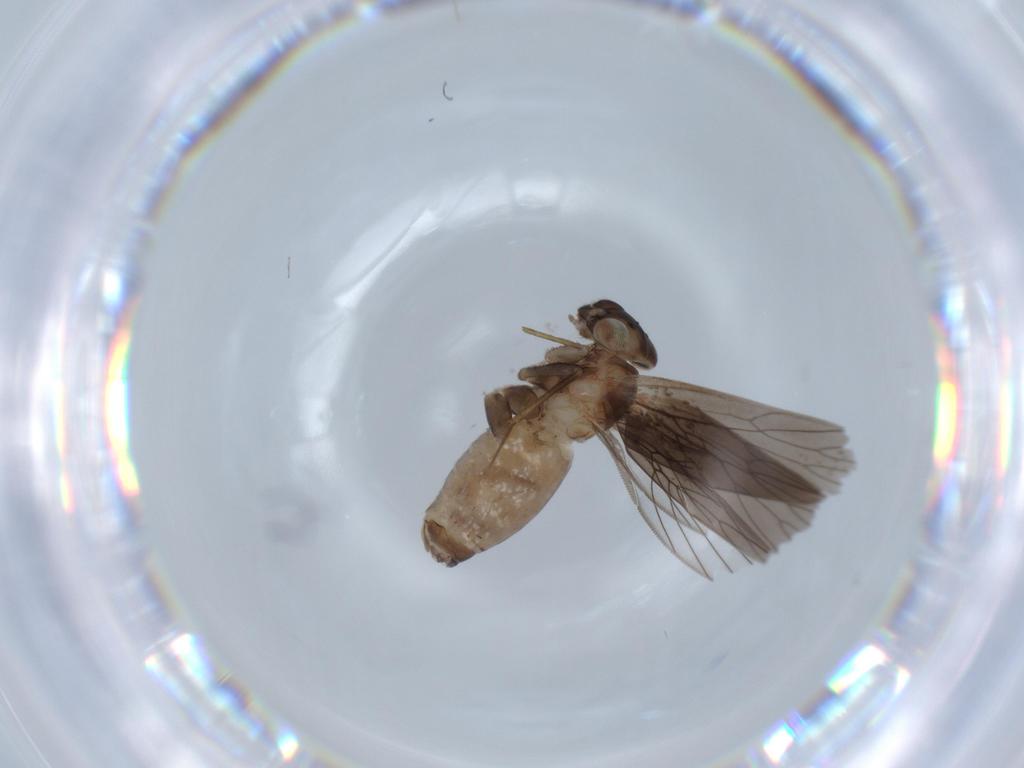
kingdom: Animalia
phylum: Arthropoda
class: Insecta
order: Psocodea
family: Lepidopsocidae
